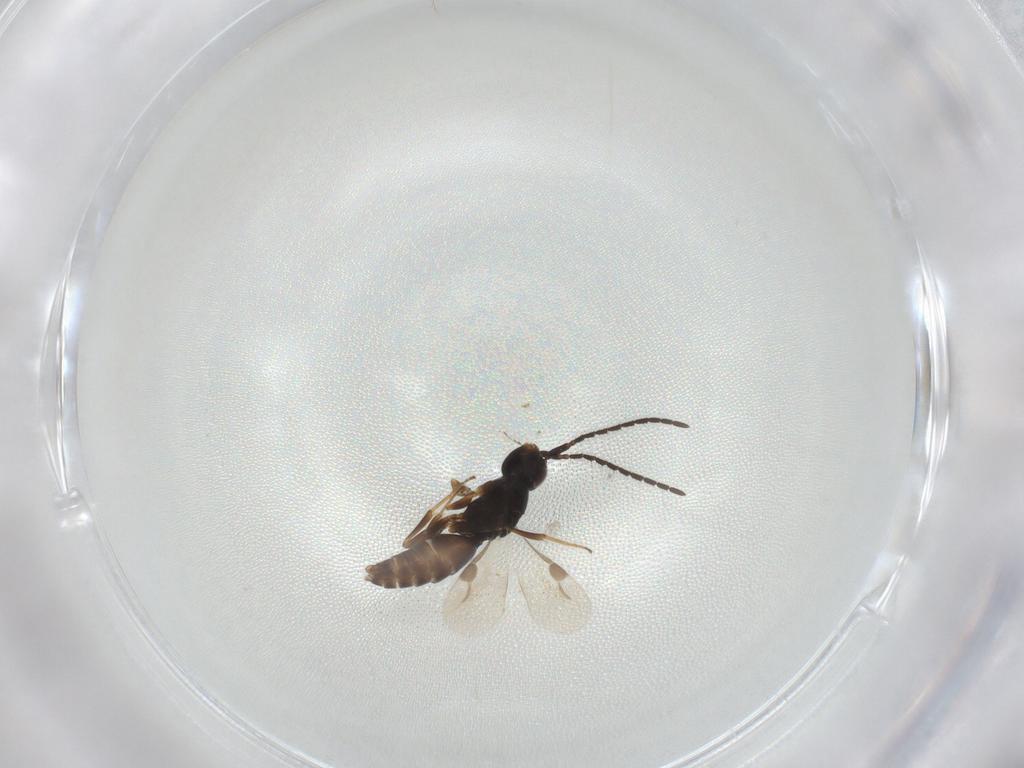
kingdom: Animalia
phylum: Arthropoda
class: Insecta
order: Hymenoptera
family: Megaspilidae
